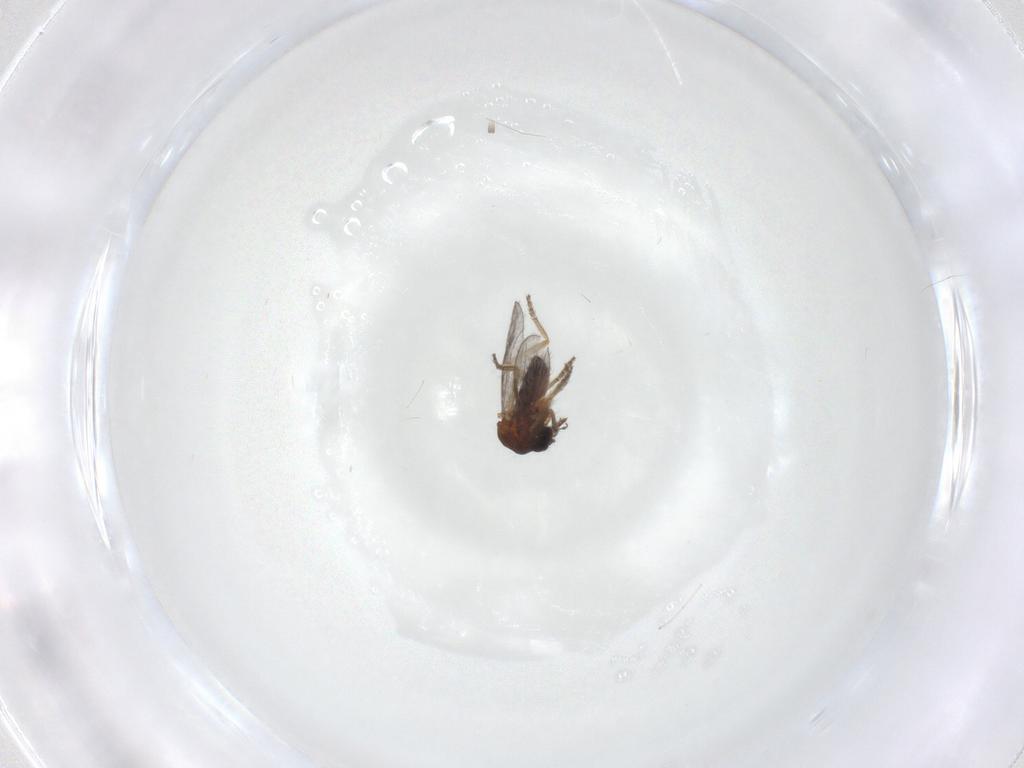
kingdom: Animalia
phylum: Arthropoda
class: Insecta
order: Diptera
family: Ceratopogonidae
